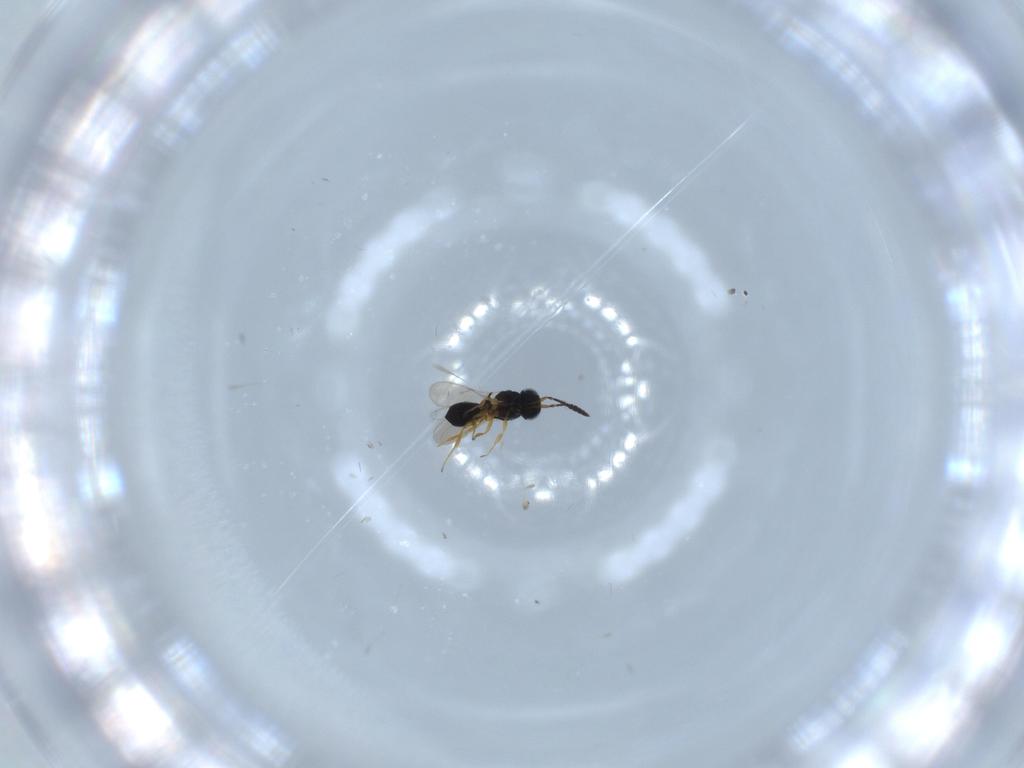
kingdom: Animalia
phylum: Arthropoda
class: Insecta
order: Hymenoptera
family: Scelionidae
